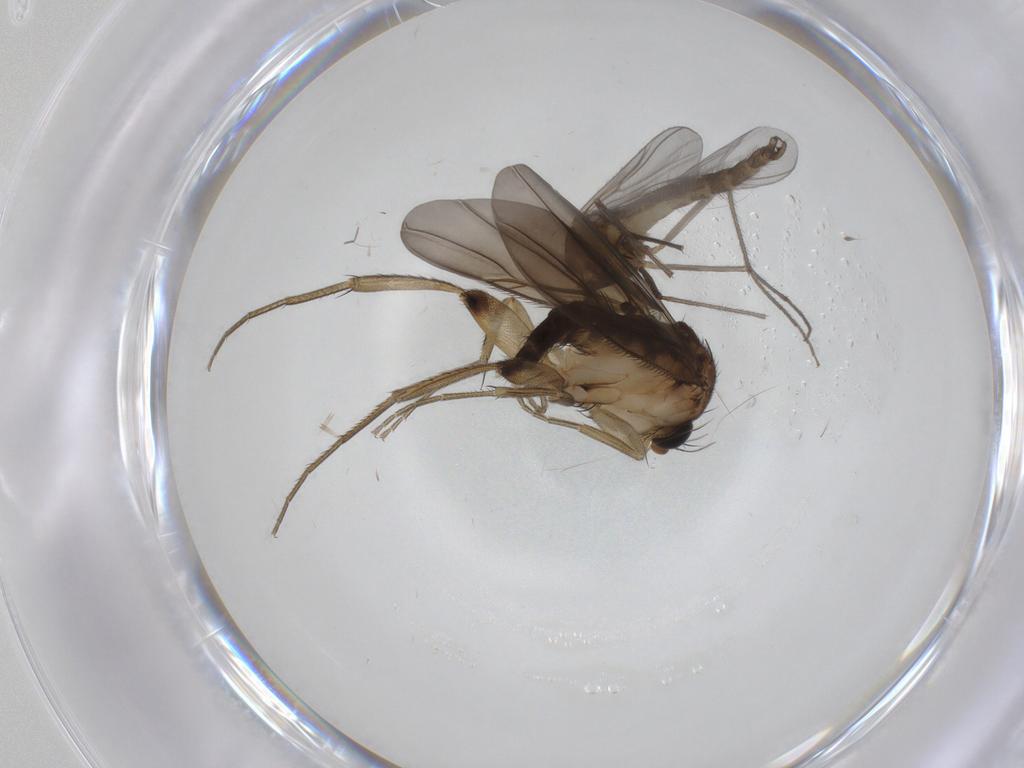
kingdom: Animalia
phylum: Arthropoda
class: Insecta
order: Diptera
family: Phoridae
